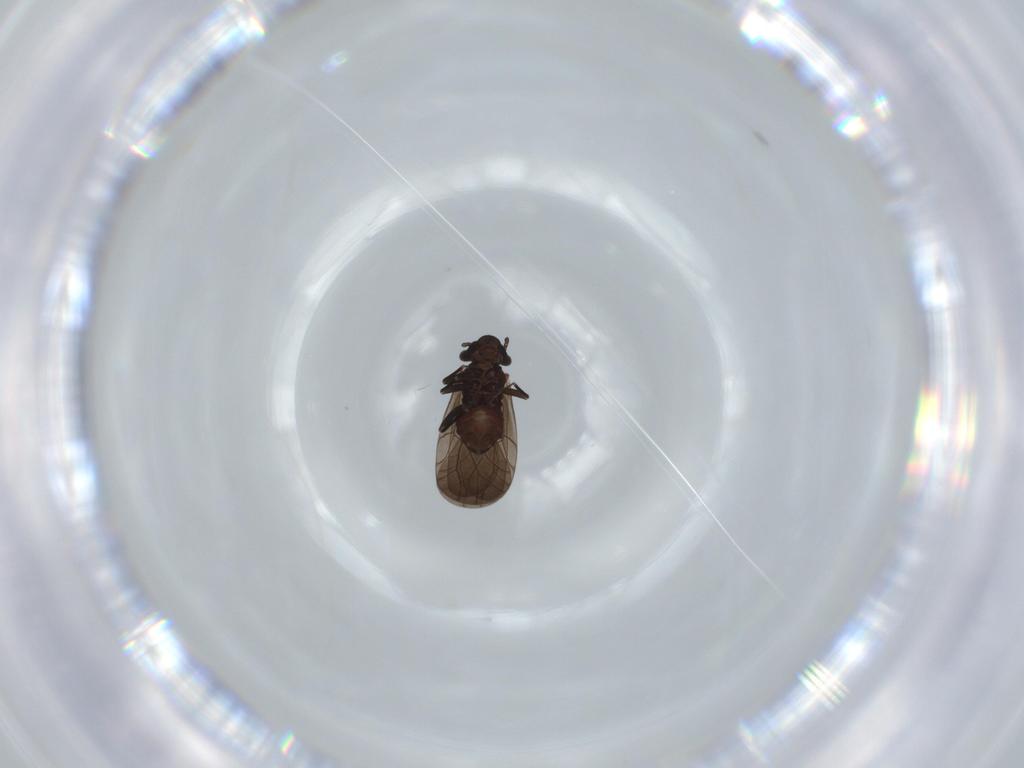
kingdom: Animalia
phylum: Arthropoda
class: Insecta
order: Psocodea
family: Lepidopsocidae
